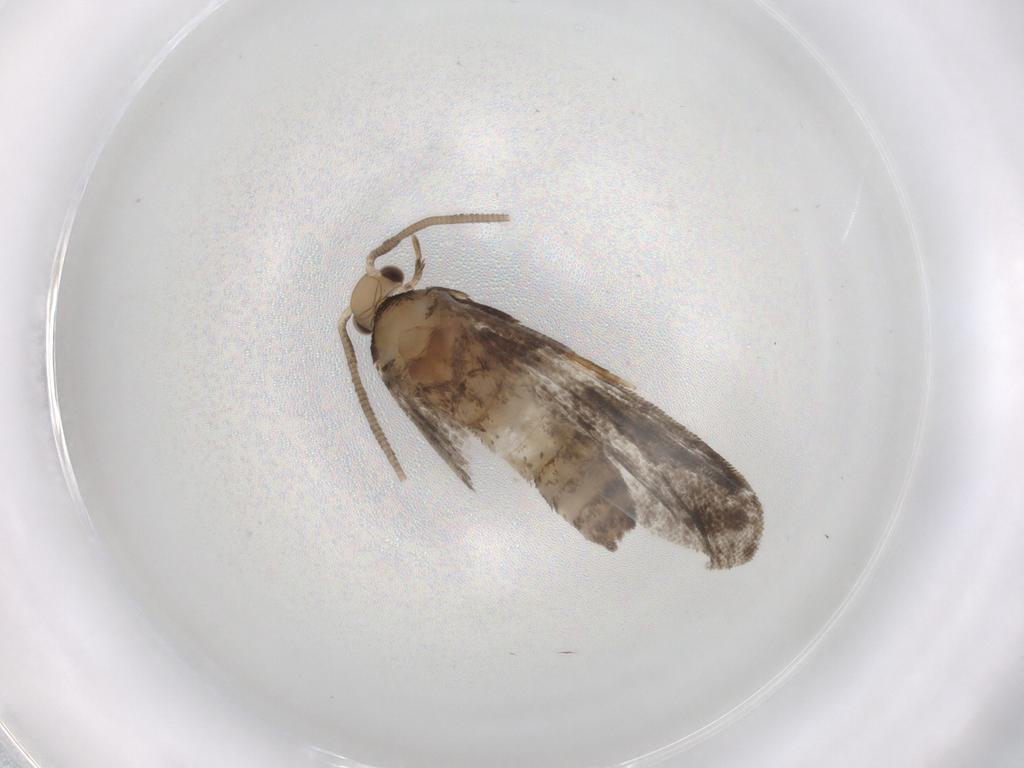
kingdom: Animalia
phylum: Arthropoda
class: Insecta
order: Lepidoptera
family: Dryadaulidae
